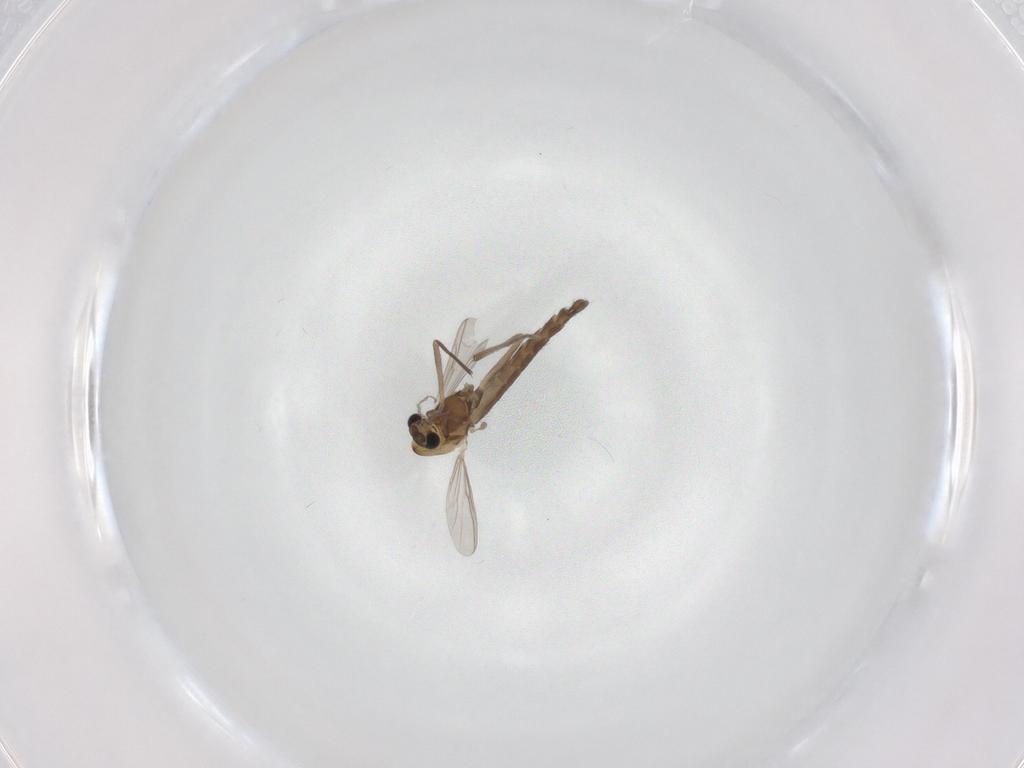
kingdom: Animalia
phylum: Arthropoda
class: Insecta
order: Diptera
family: Chironomidae
